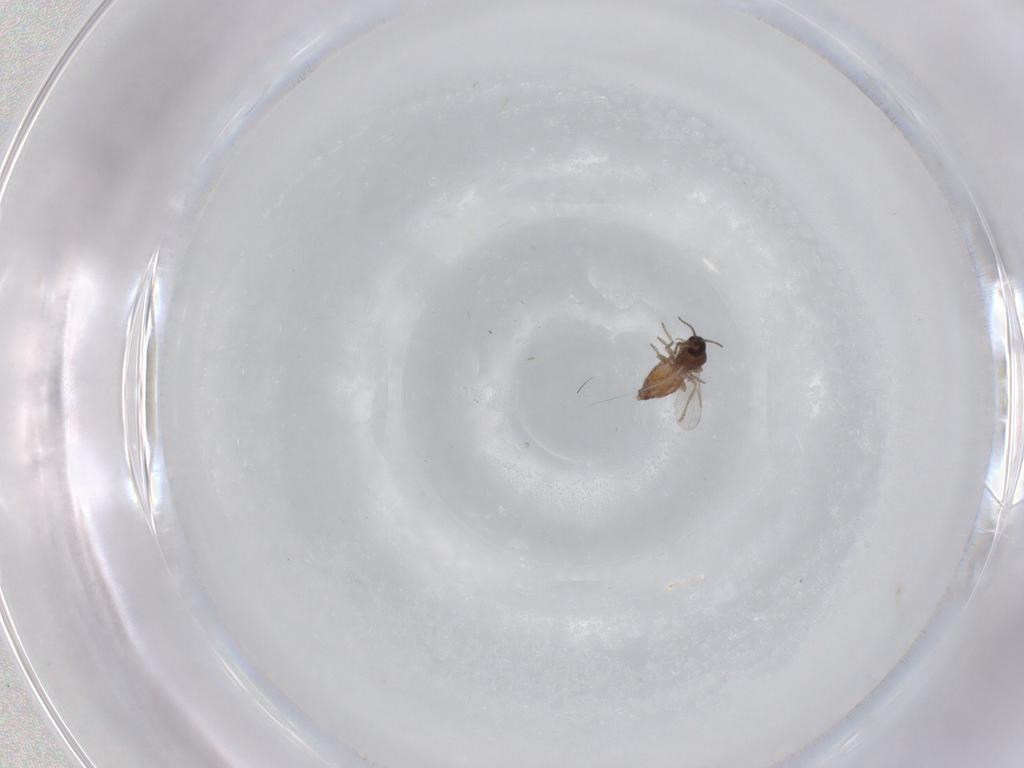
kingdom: Animalia
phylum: Arthropoda
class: Insecta
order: Diptera
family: Ceratopogonidae
